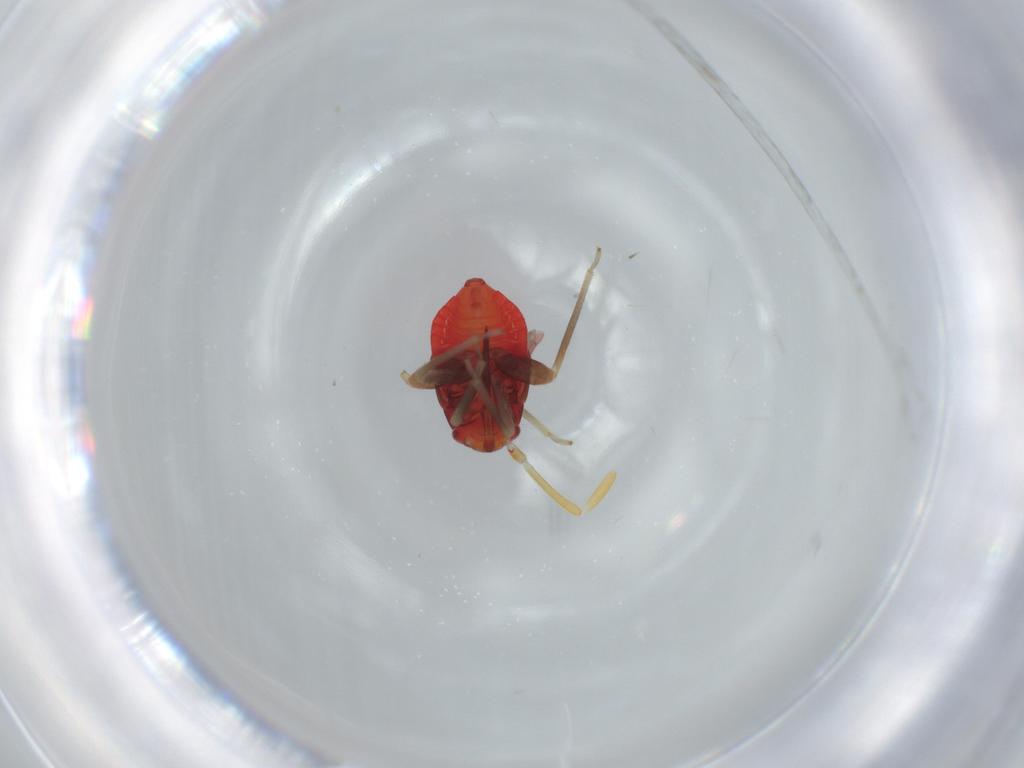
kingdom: Animalia
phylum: Arthropoda
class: Insecta
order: Hemiptera
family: Miridae
